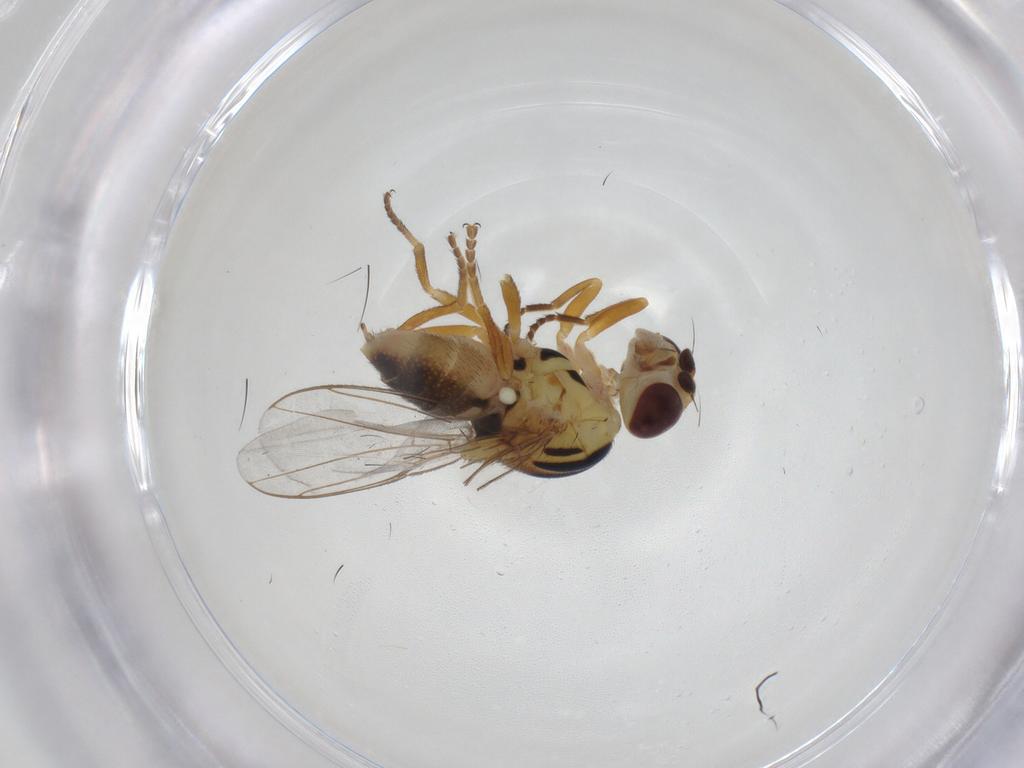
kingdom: Animalia
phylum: Arthropoda
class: Insecta
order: Diptera
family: Chloropidae
